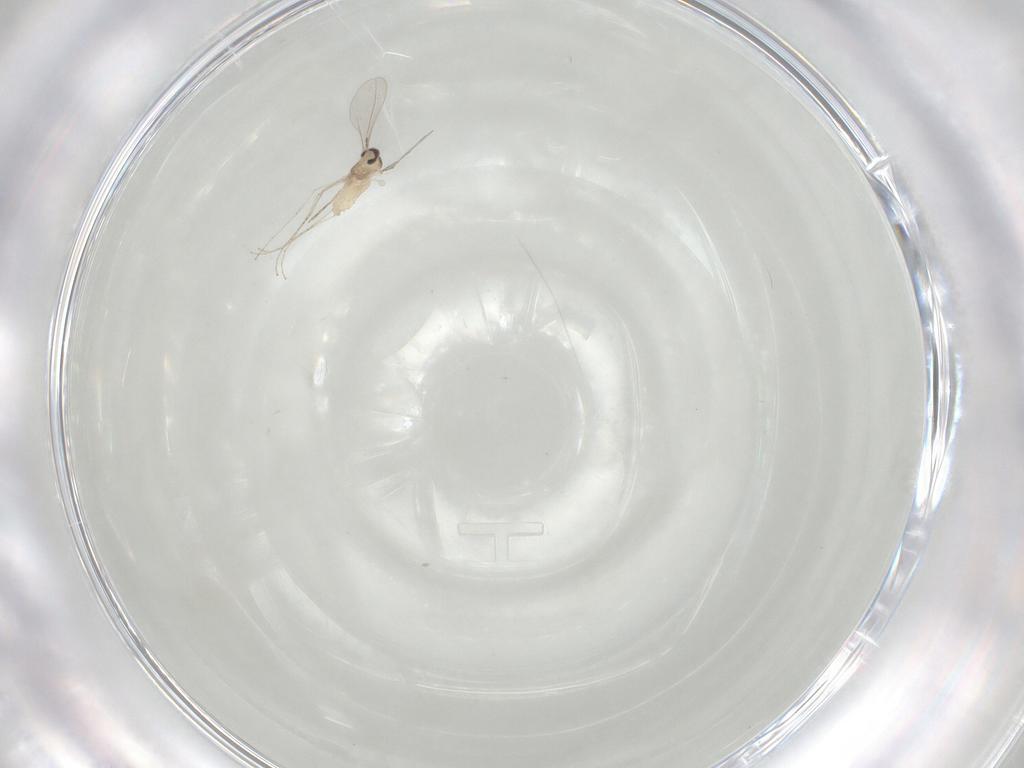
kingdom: Animalia
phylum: Arthropoda
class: Insecta
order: Diptera
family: Cecidomyiidae
